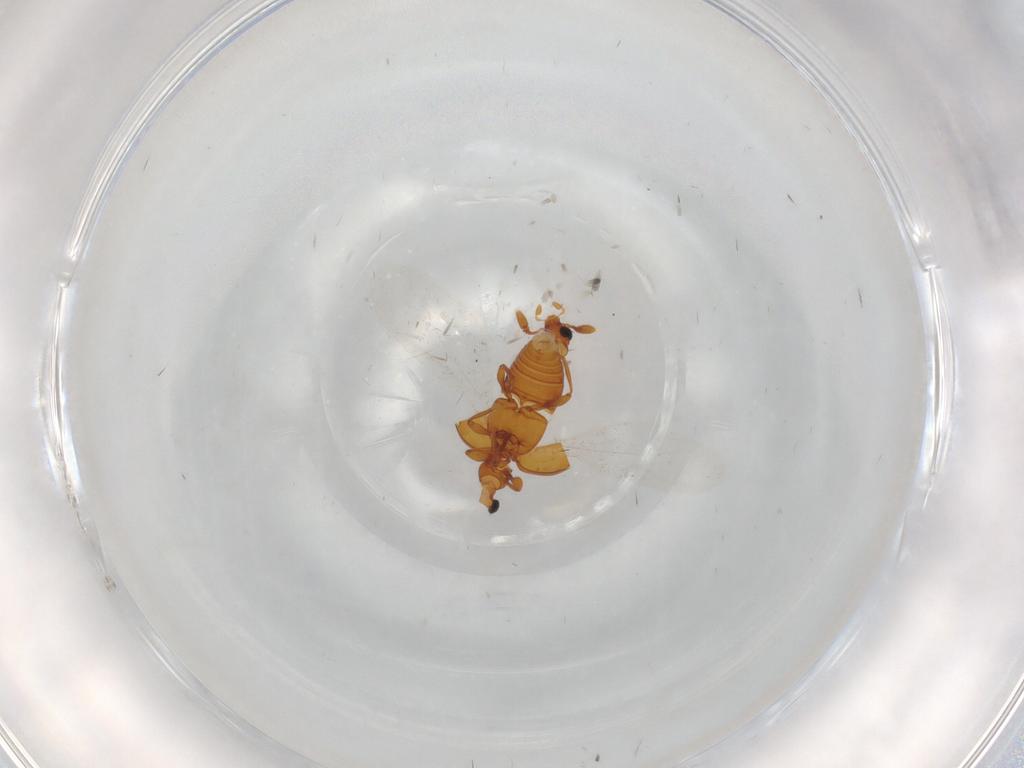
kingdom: Animalia
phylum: Arthropoda
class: Insecta
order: Coleoptera
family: Staphylinidae
